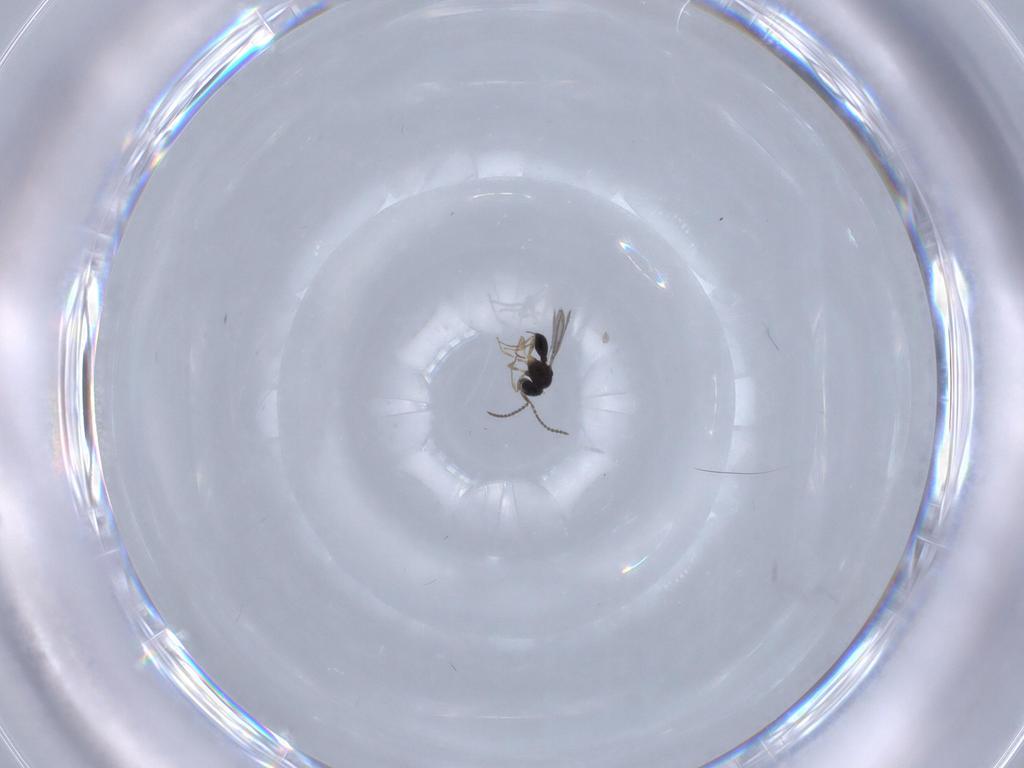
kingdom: Animalia
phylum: Arthropoda
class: Insecta
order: Hymenoptera
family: Scelionidae
